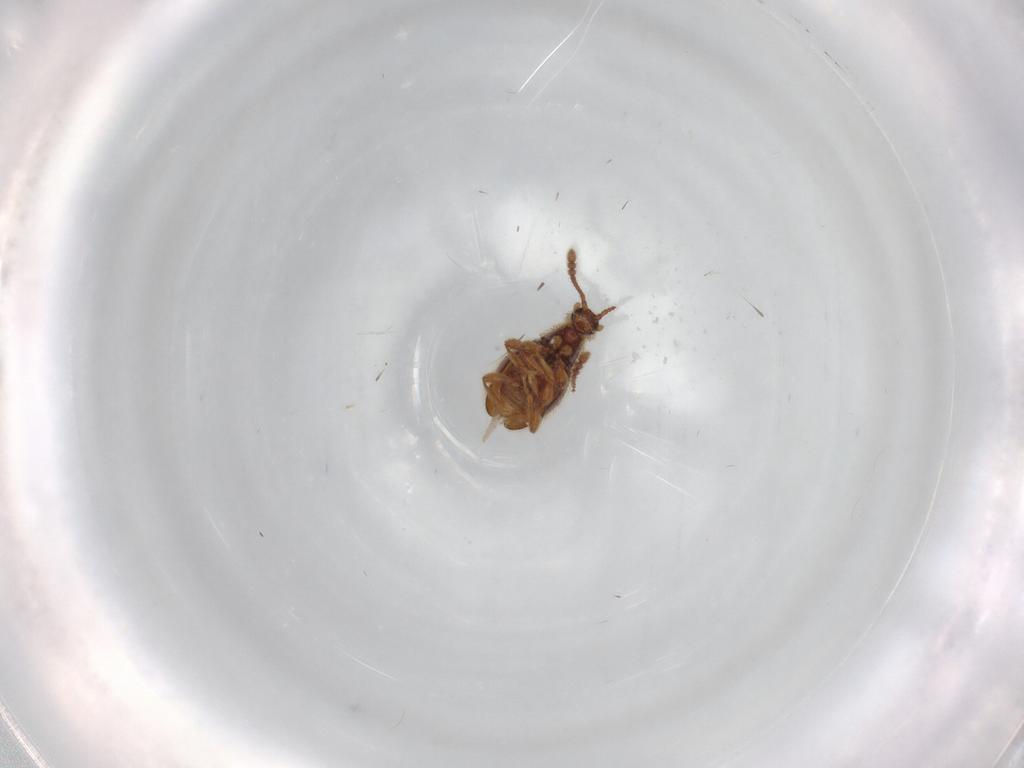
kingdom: Animalia
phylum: Arthropoda
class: Insecta
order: Coleoptera
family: Staphylinidae
